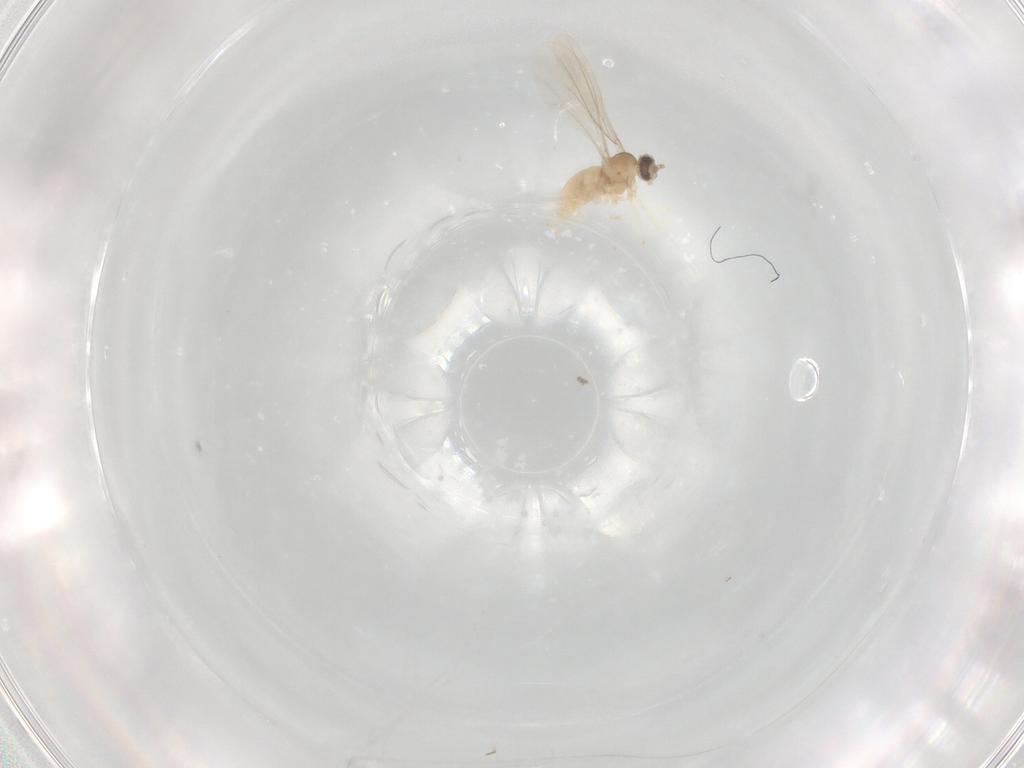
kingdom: Animalia
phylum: Arthropoda
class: Insecta
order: Diptera
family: Cecidomyiidae
